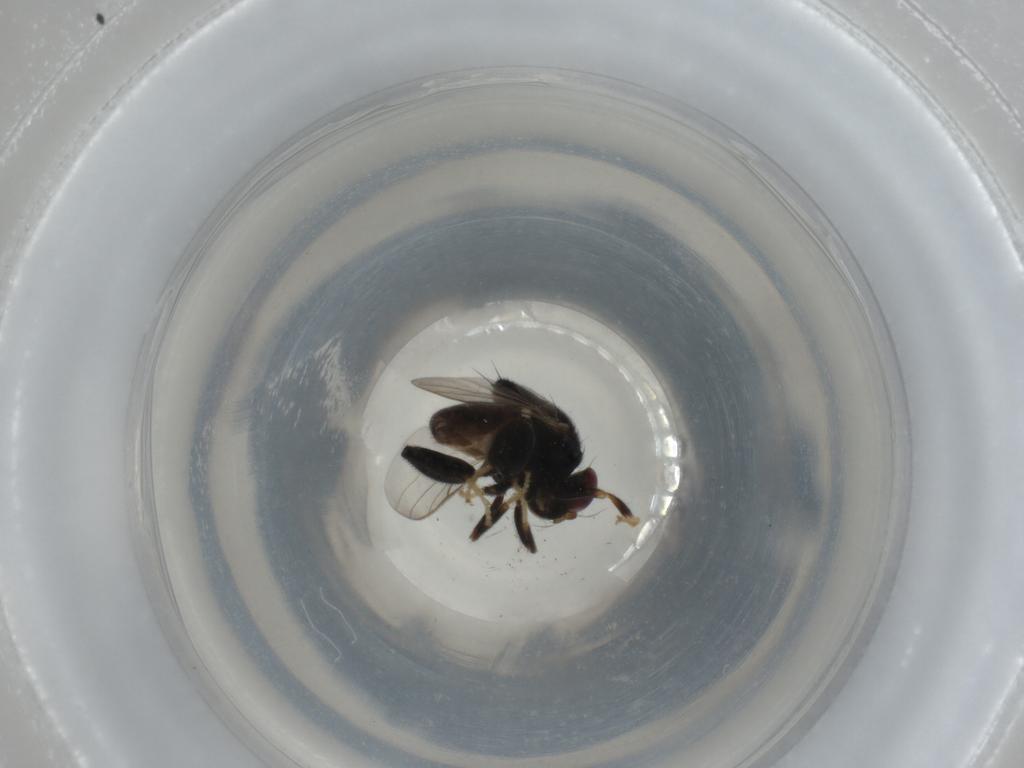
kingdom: Animalia
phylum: Arthropoda
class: Insecta
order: Diptera
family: Chloropidae
